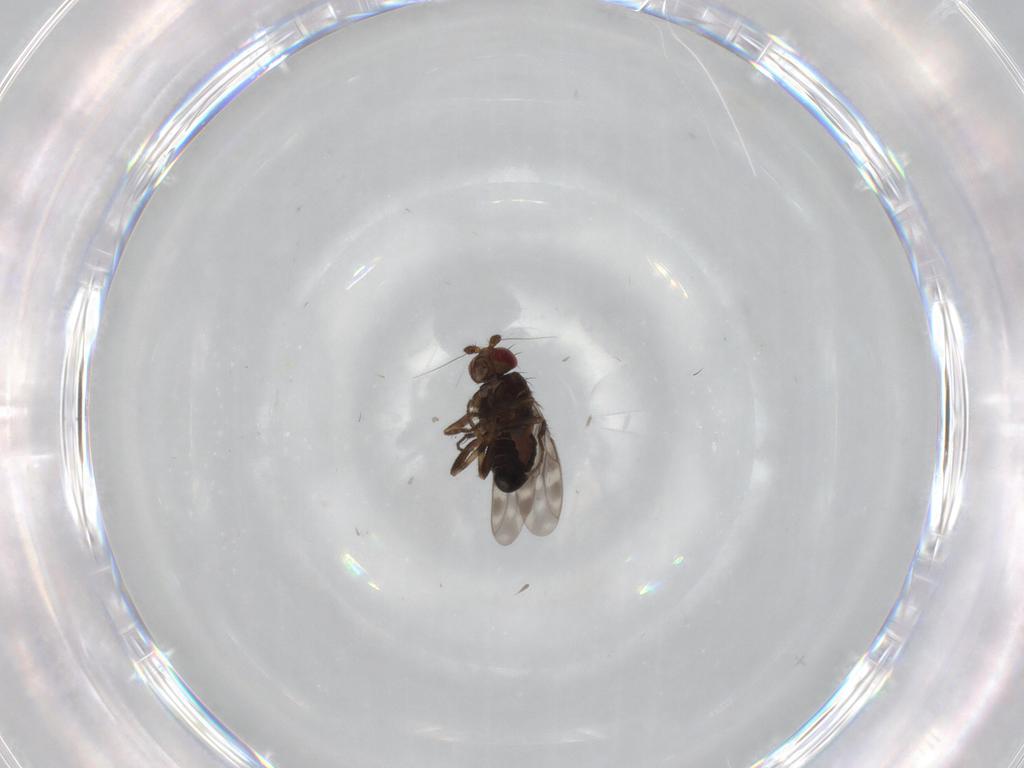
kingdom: Animalia
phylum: Arthropoda
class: Insecta
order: Diptera
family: Sphaeroceridae
